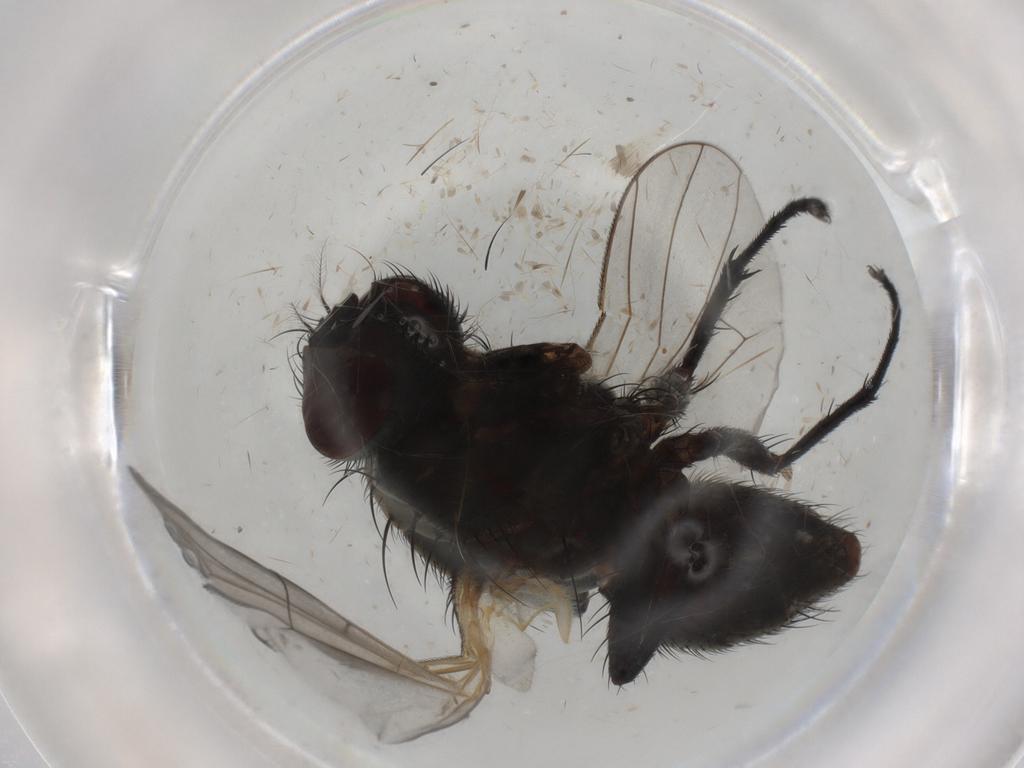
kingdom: Animalia
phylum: Arthropoda
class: Insecta
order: Diptera
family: Muscidae
